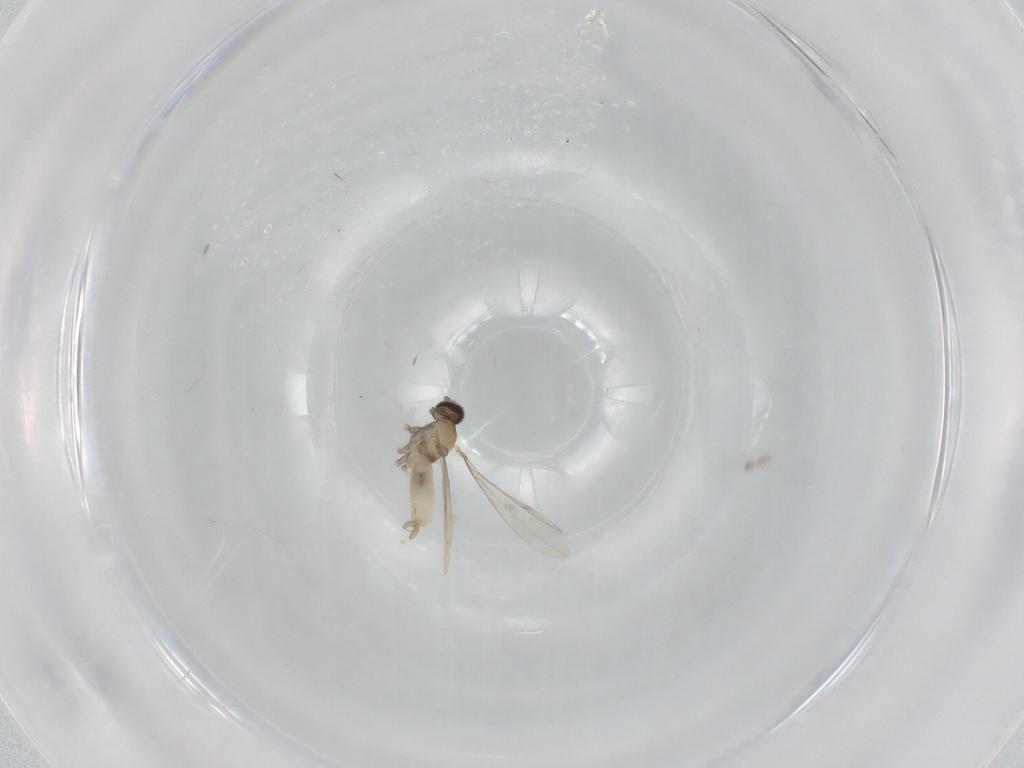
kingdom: Animalia
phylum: Arthropoda
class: Insecta
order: Diptera
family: Cecidomyiidae
